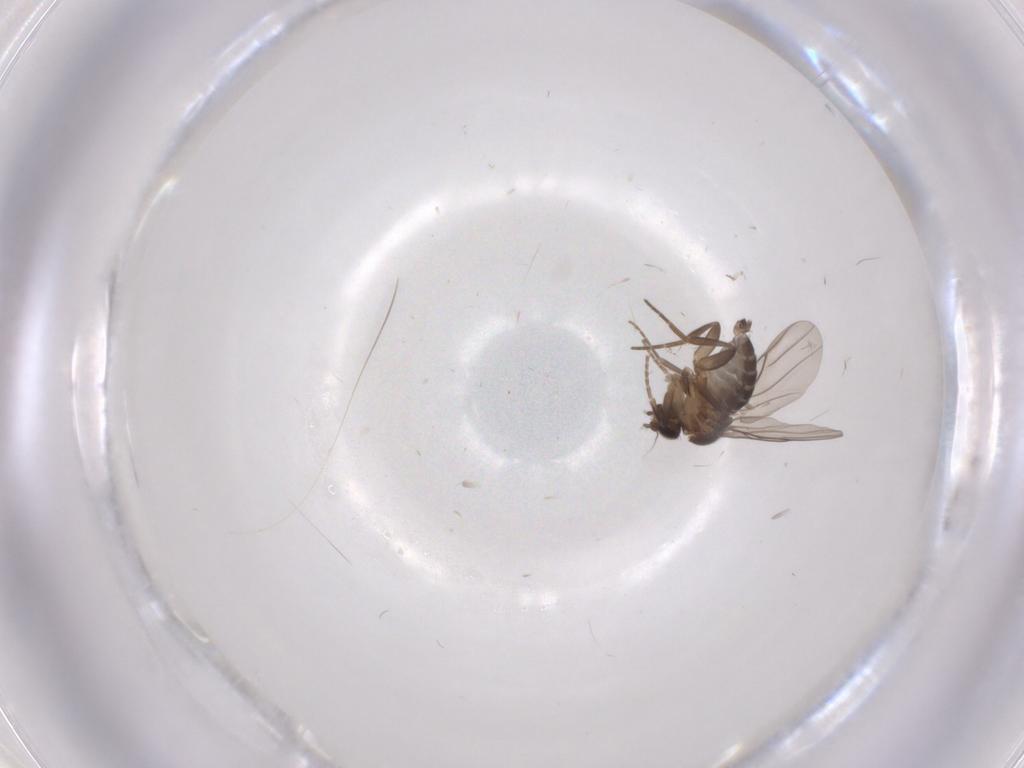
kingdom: Animalia
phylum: Arthropoda
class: Insecta
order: Diptera
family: Phoridae
